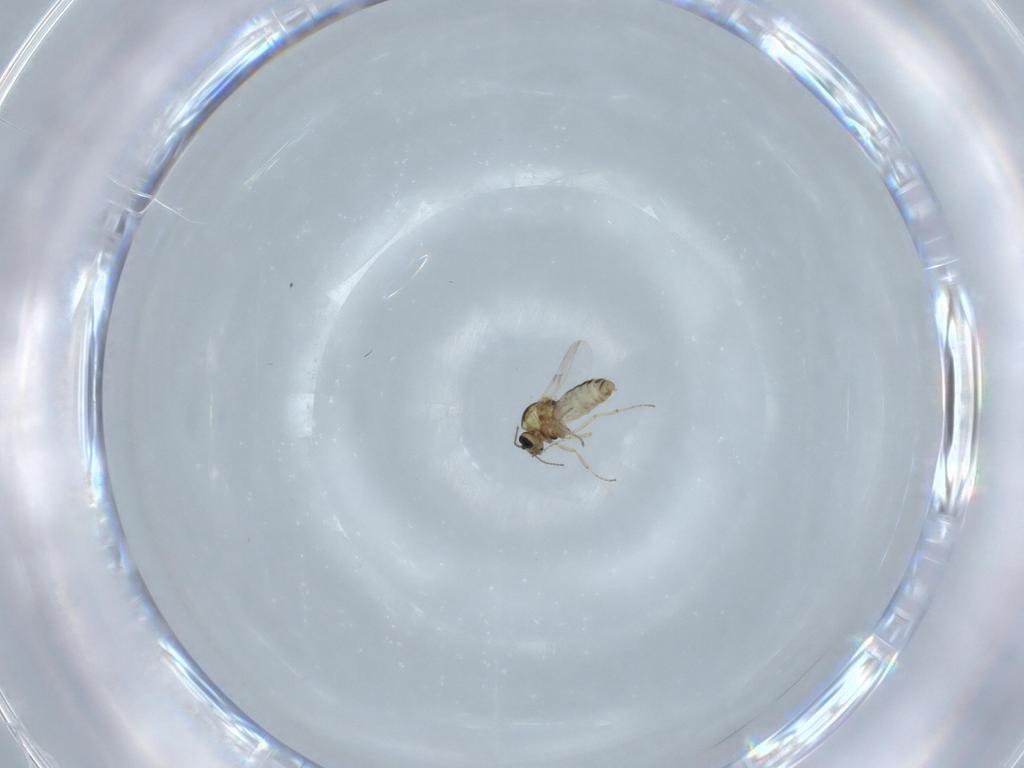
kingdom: Animalia
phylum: Arthropoda
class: Insecta
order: Diptera
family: Ceratopogonidae
